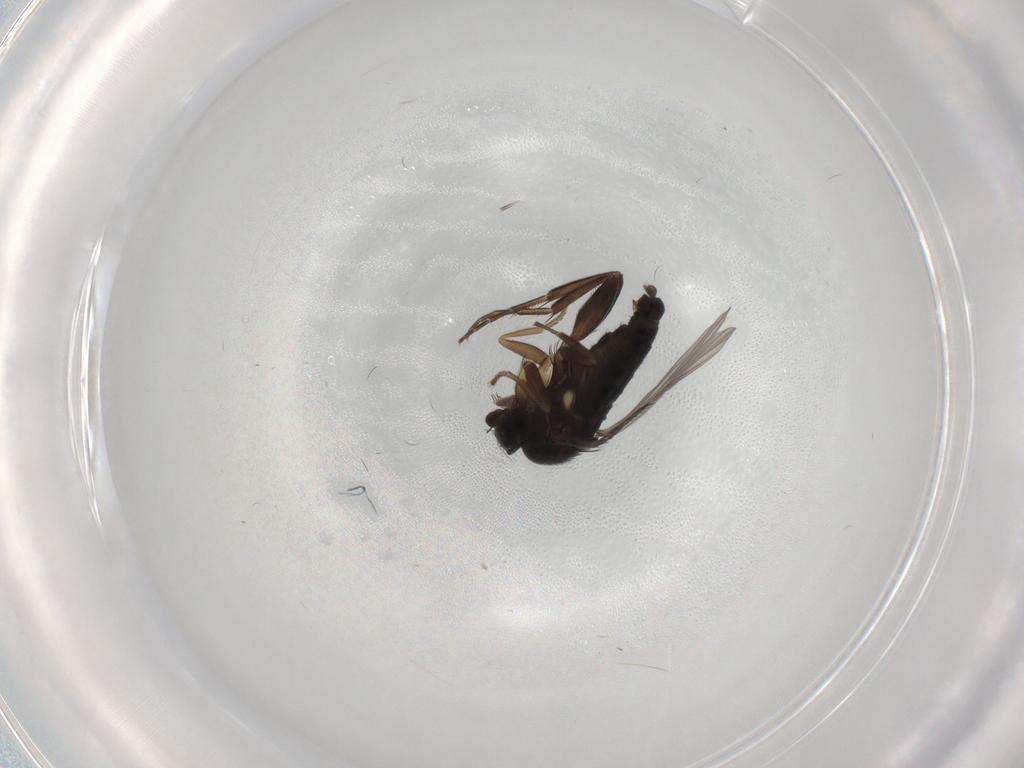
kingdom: Animalia
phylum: Arthropoda
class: Insecta
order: Diptera
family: Phoridae
